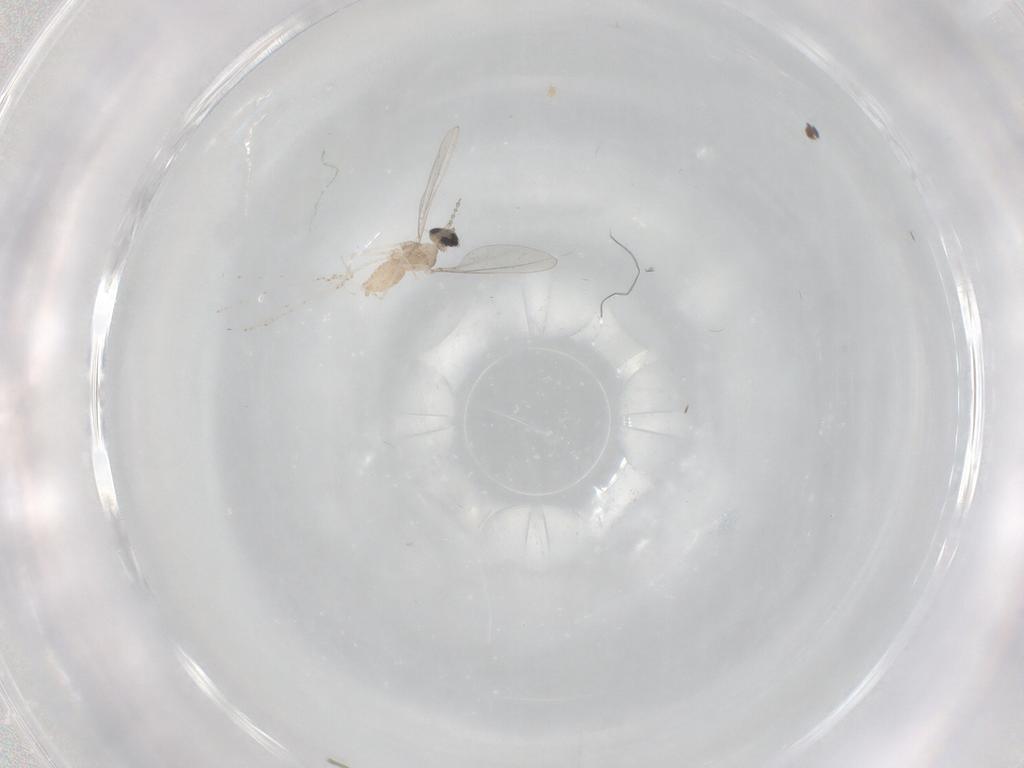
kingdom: Animalia
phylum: Arthropoda
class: Insecta
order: Diptera
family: Cecidomyiidae
